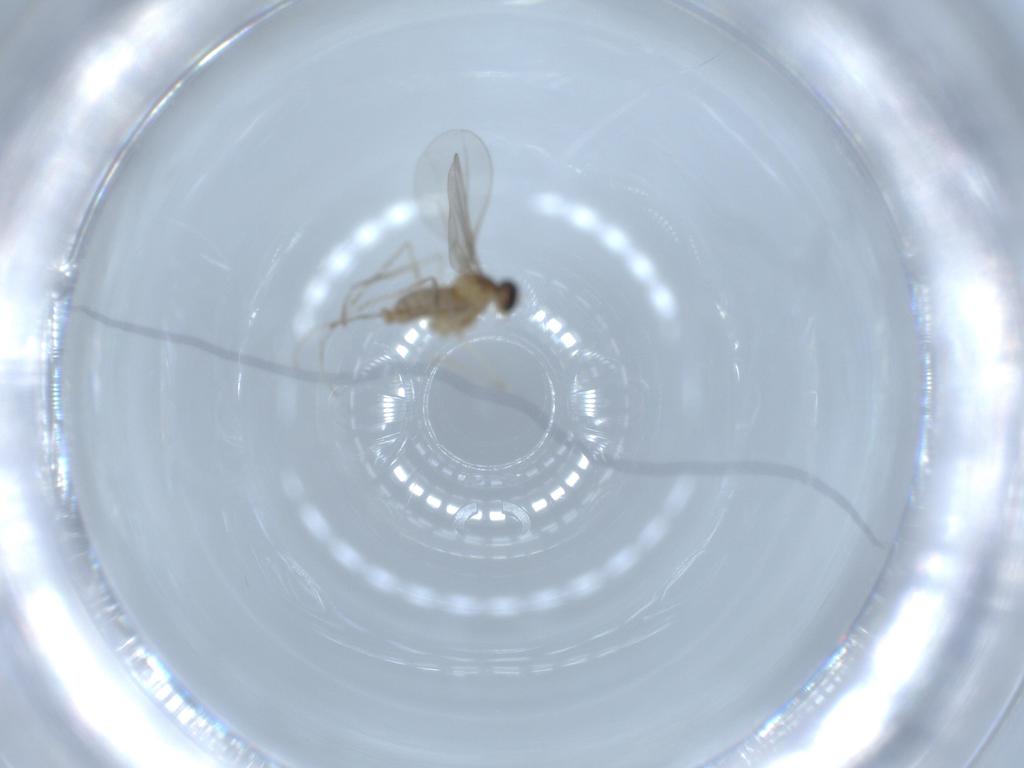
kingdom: Animalia
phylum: Arthropoda
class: Insecta
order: Diptera
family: Cecidomyiidae
